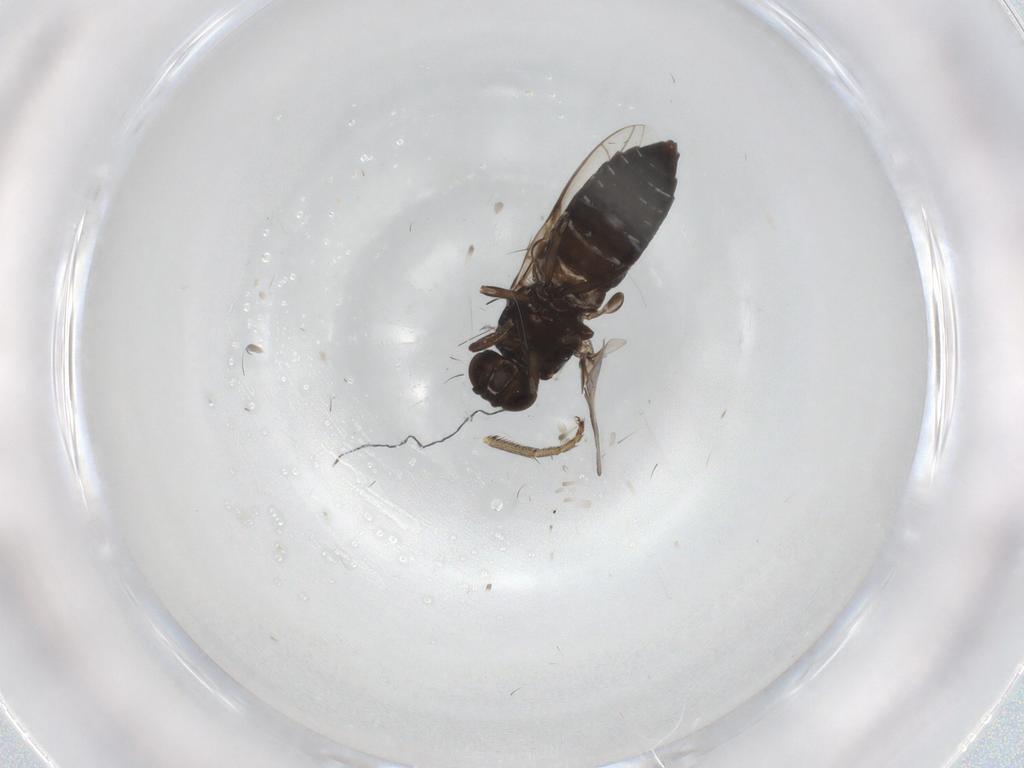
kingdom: Animalia
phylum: Arthropoda
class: Insecta
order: Diptera
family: Scenopinidae
